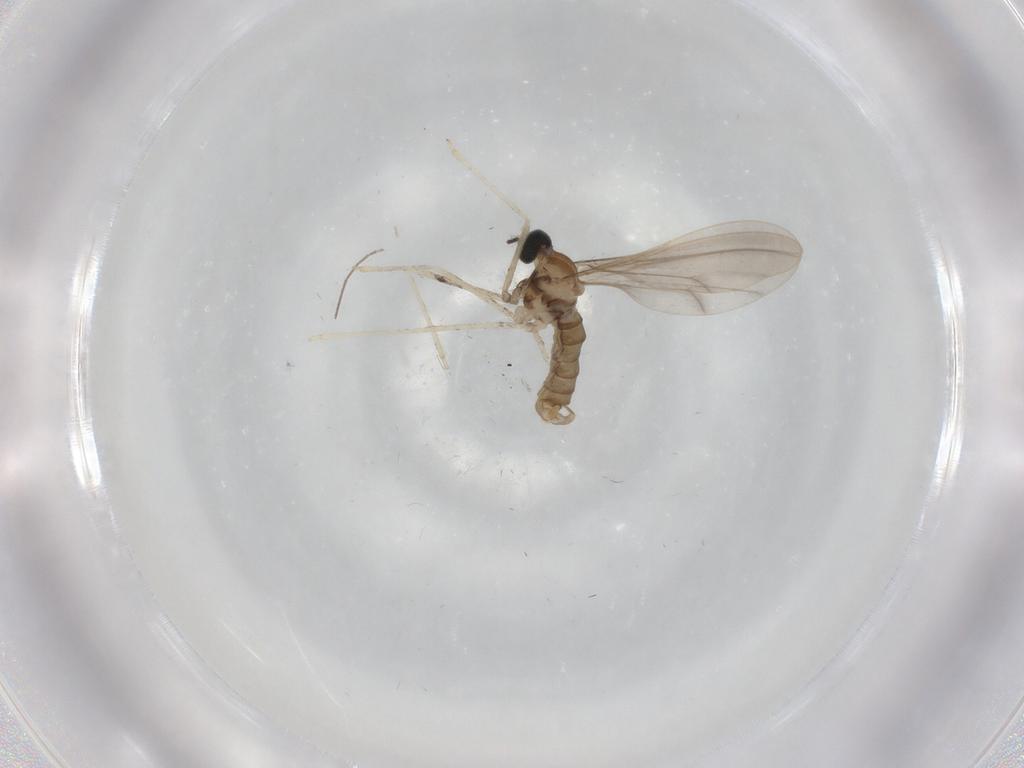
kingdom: Animalia
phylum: Arthropoda
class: Insecta
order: Diptera
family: Cecidomyiidae
